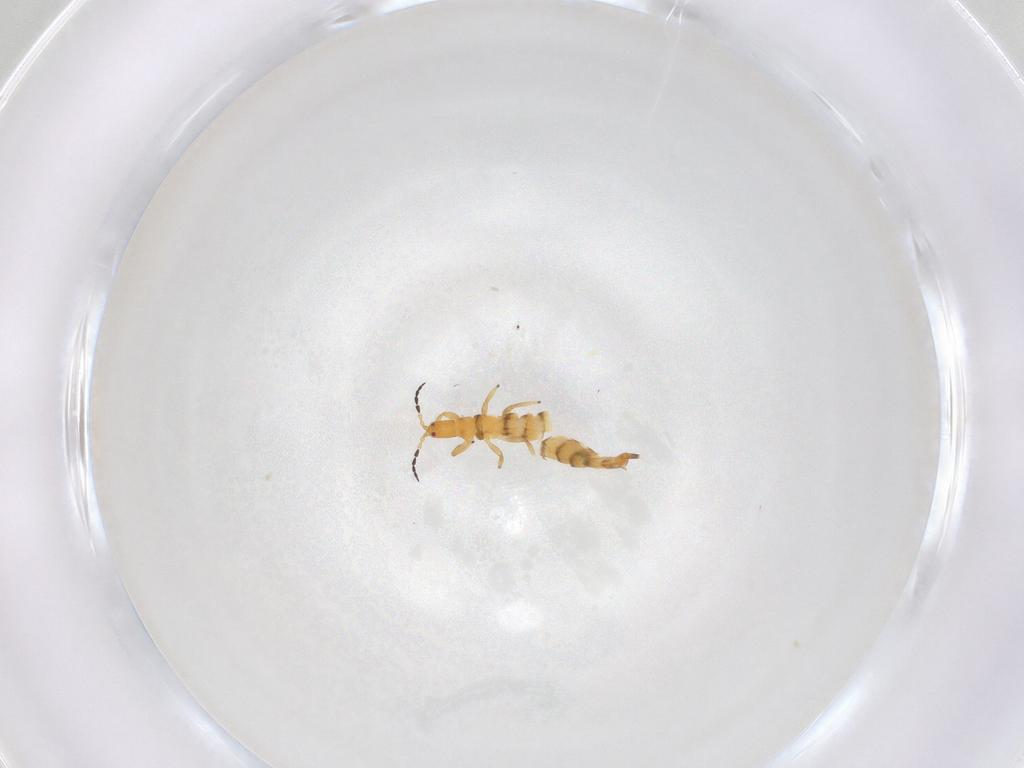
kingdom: Animalia
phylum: Arthropoda
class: Insecta
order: Thysanoptera
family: Phlaeothripidae
